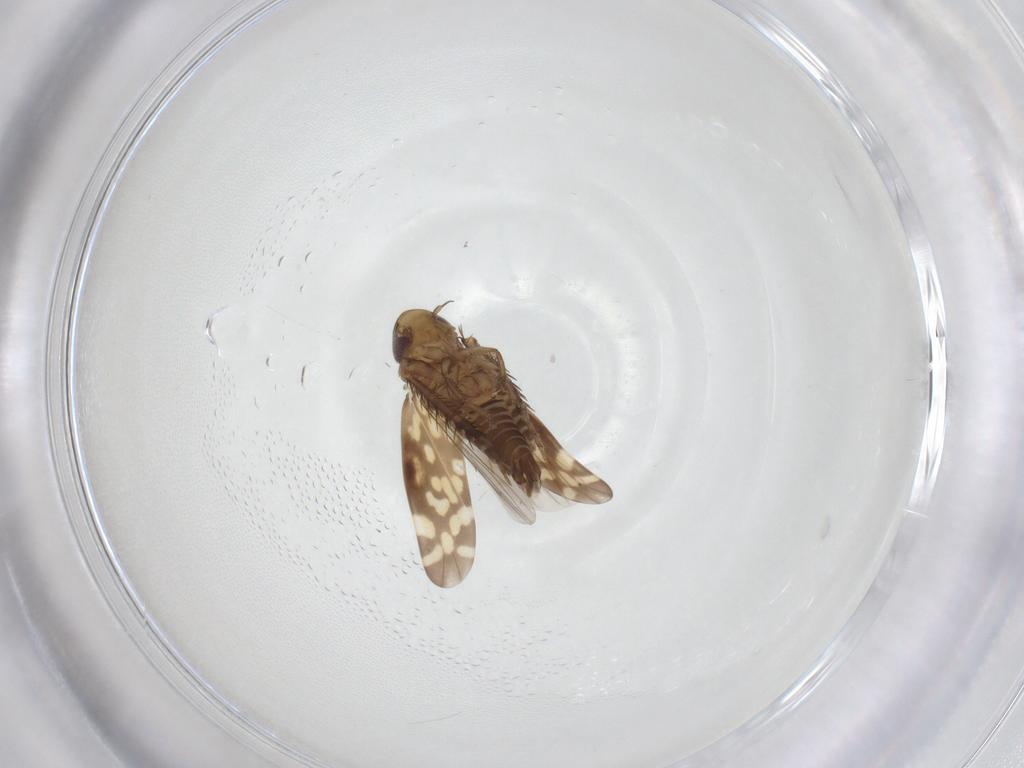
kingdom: Animalia
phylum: Arthropoda
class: Insecta
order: Hemiptera
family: Cicadellidae
